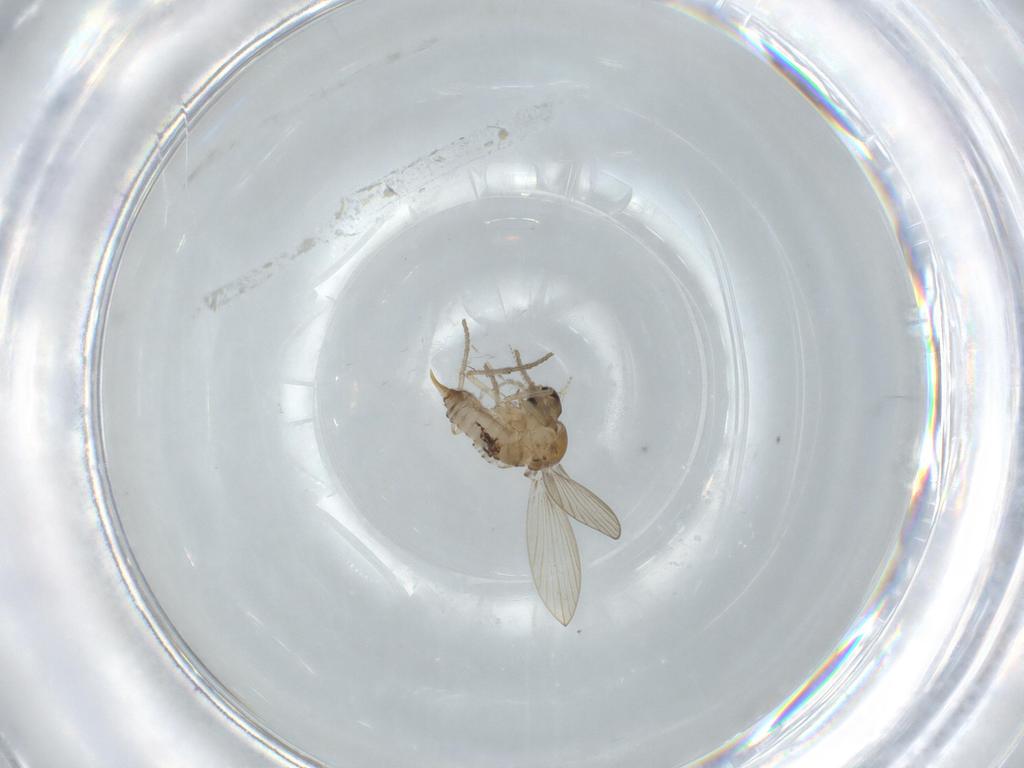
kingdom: Animalia
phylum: Arthropoda
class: Insecta
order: Diptera
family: Psychodidae
